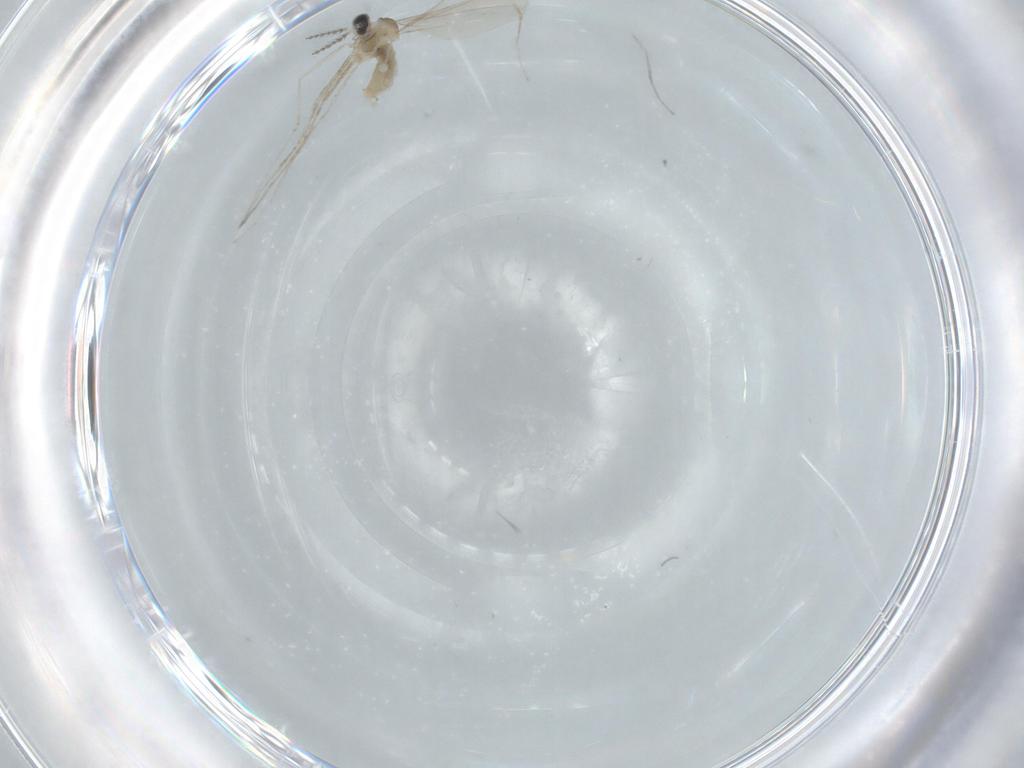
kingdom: Animalia
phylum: Arthropoda
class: Insecta
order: Diptera
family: Cecidomyiidae
